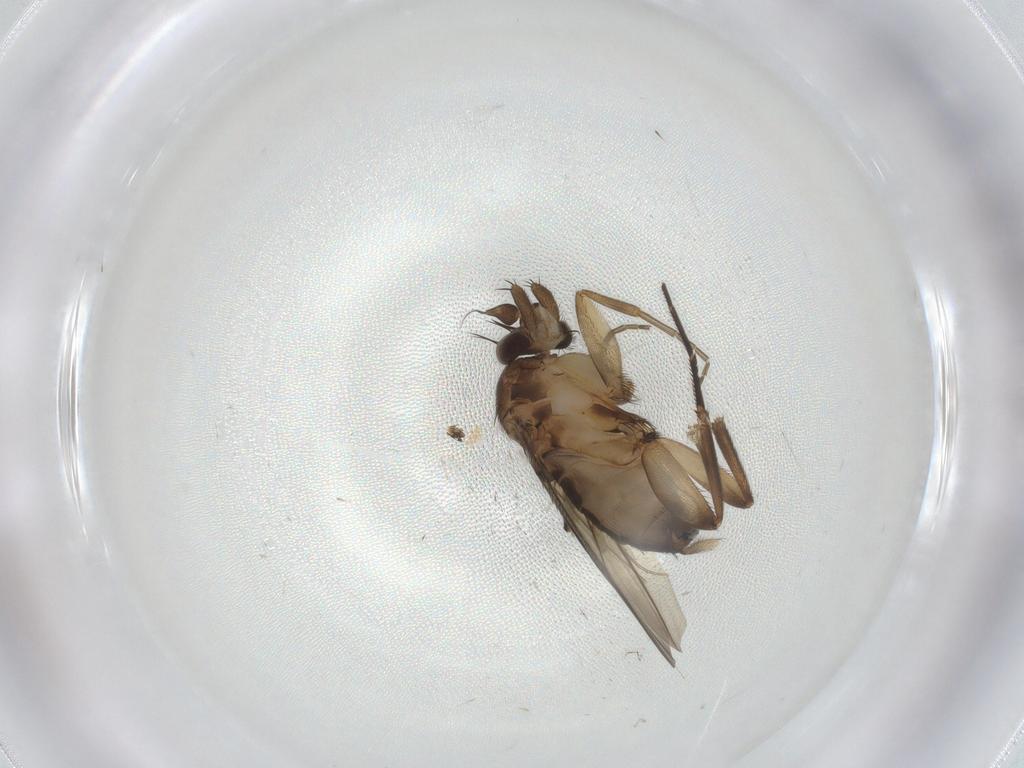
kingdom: Animalia
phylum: Arthropoda
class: Insecta
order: Diptera
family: Phoridae
